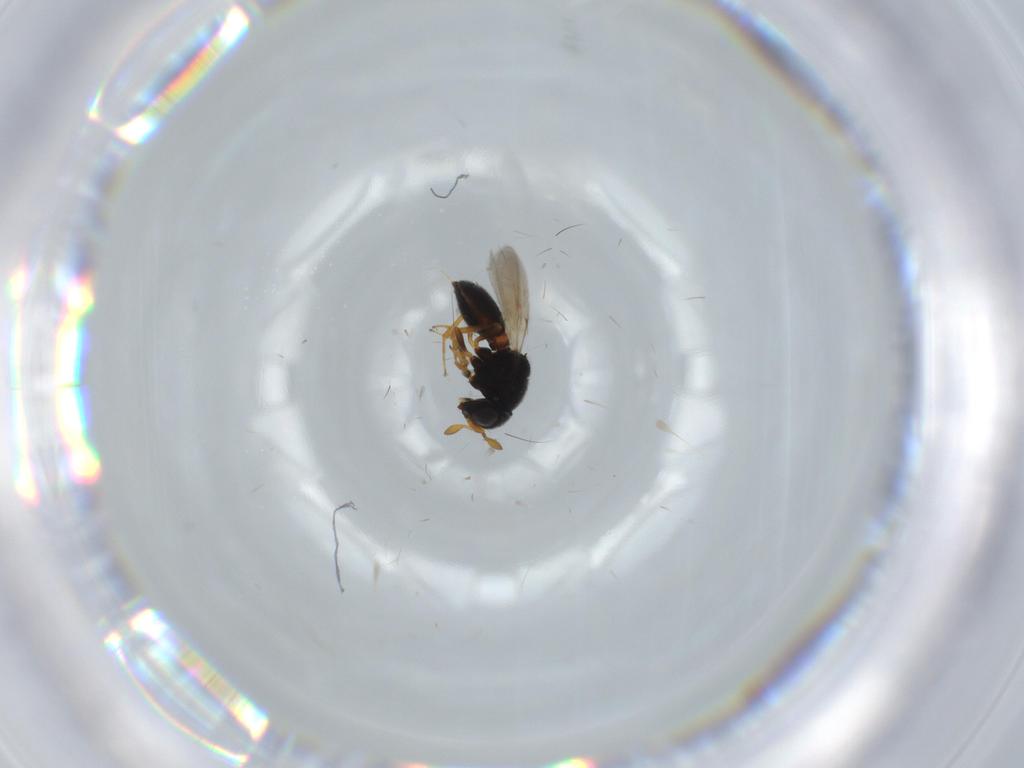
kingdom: Animalia
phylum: Arthropoda
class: Insecta
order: Hymenoptera
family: Scelionidae
